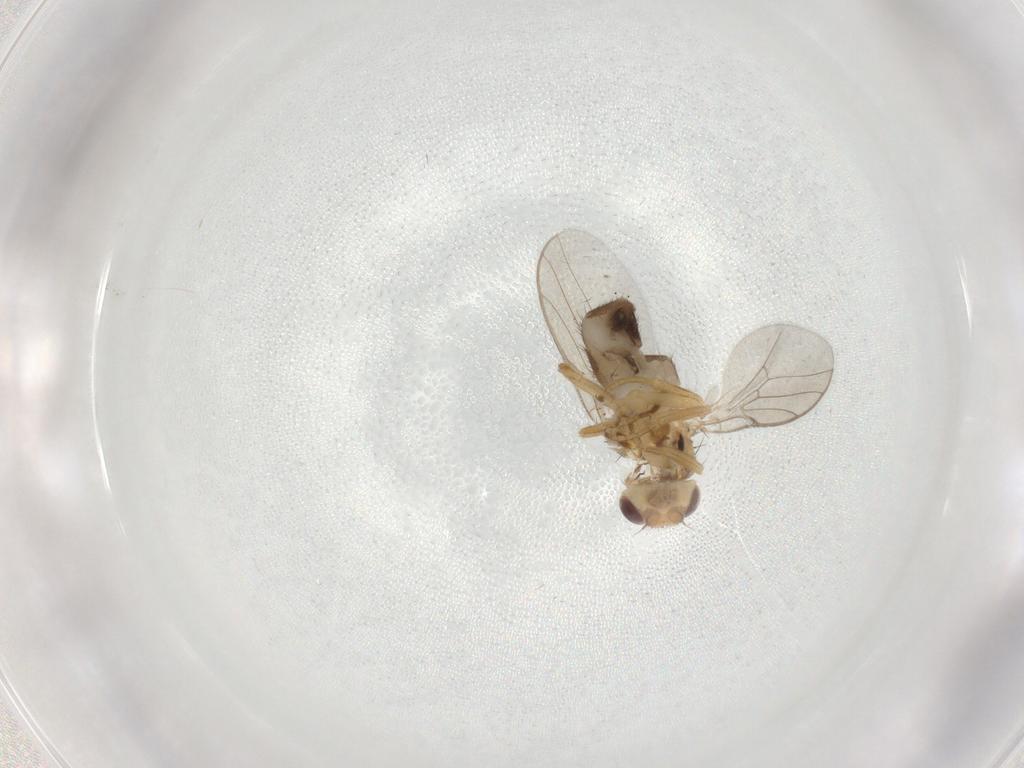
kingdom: Animalia
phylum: Arthropoda
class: Insecta
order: Diptera
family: Chloropidae
